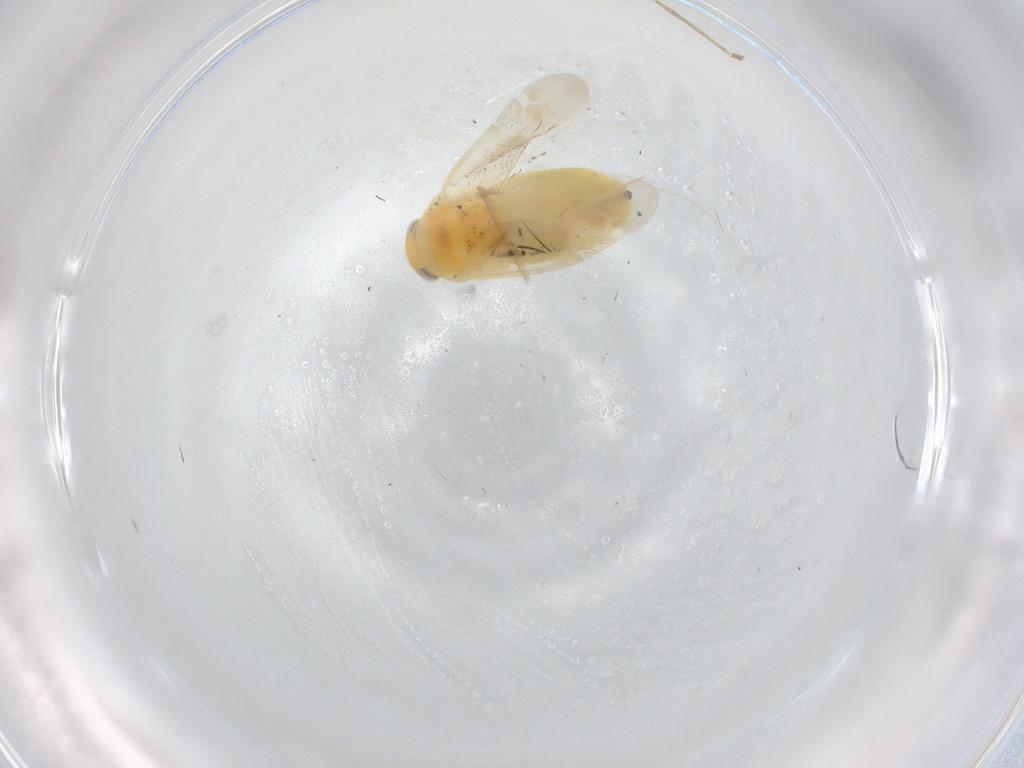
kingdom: Animalia
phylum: Arthropoda
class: Insecta
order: Hemiptera
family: Miridae
